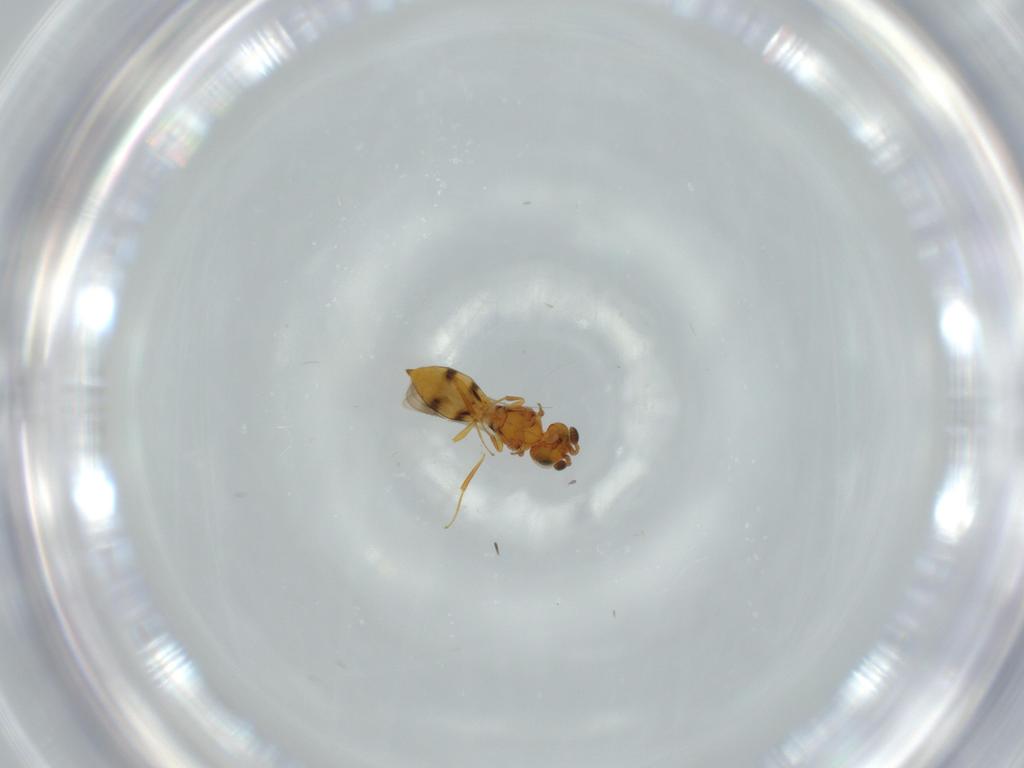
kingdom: Animalia
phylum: Arthropoda
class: Insecta
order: Hymenoptera
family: Scelionidae
